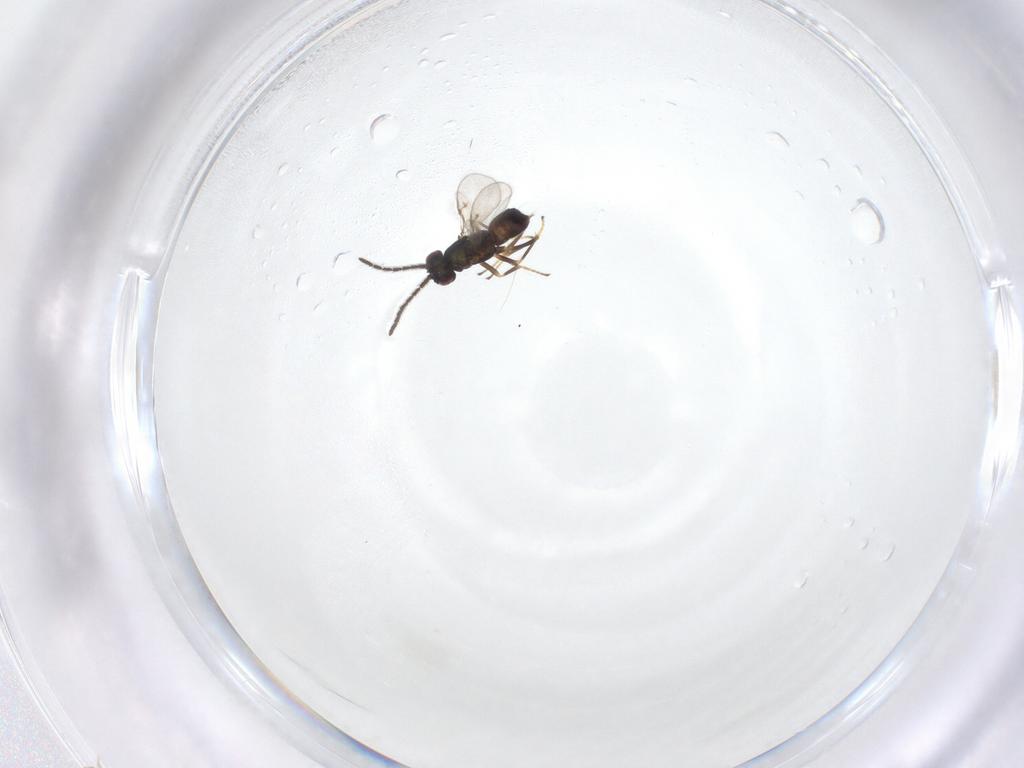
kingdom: Animalia
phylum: Arthropoda
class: Insecta
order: Hymenoptera
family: Encyrtidae
